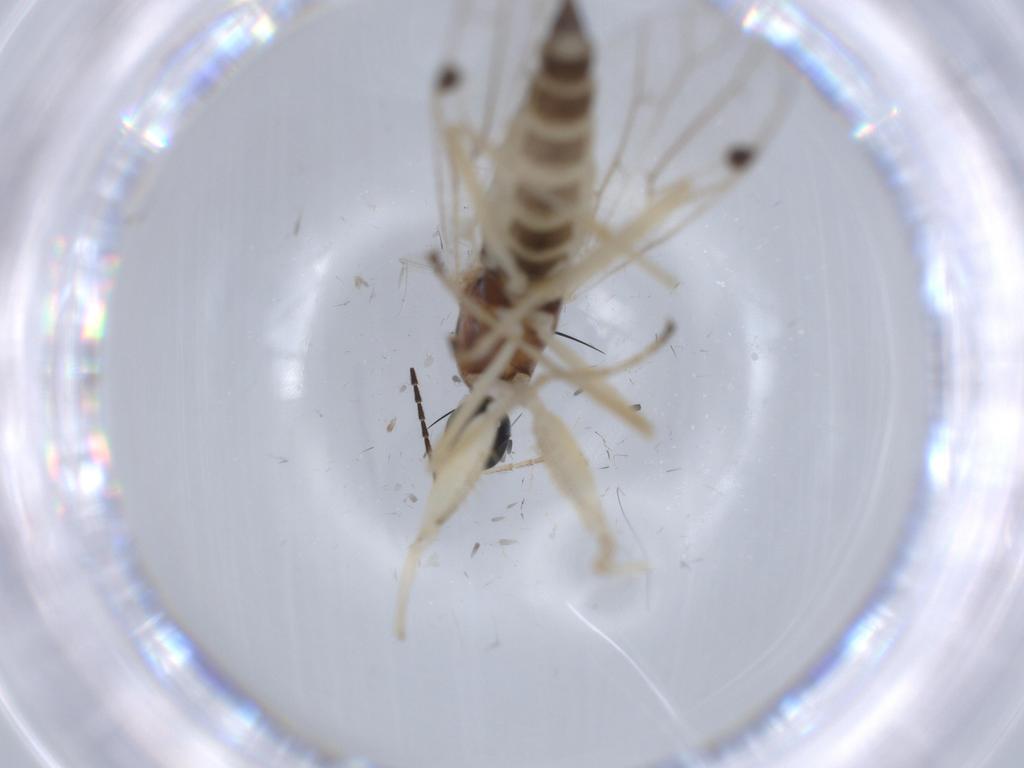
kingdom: Animalia
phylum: Arthropoda
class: Insecta
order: Diptera
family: Cecidomyiidae
